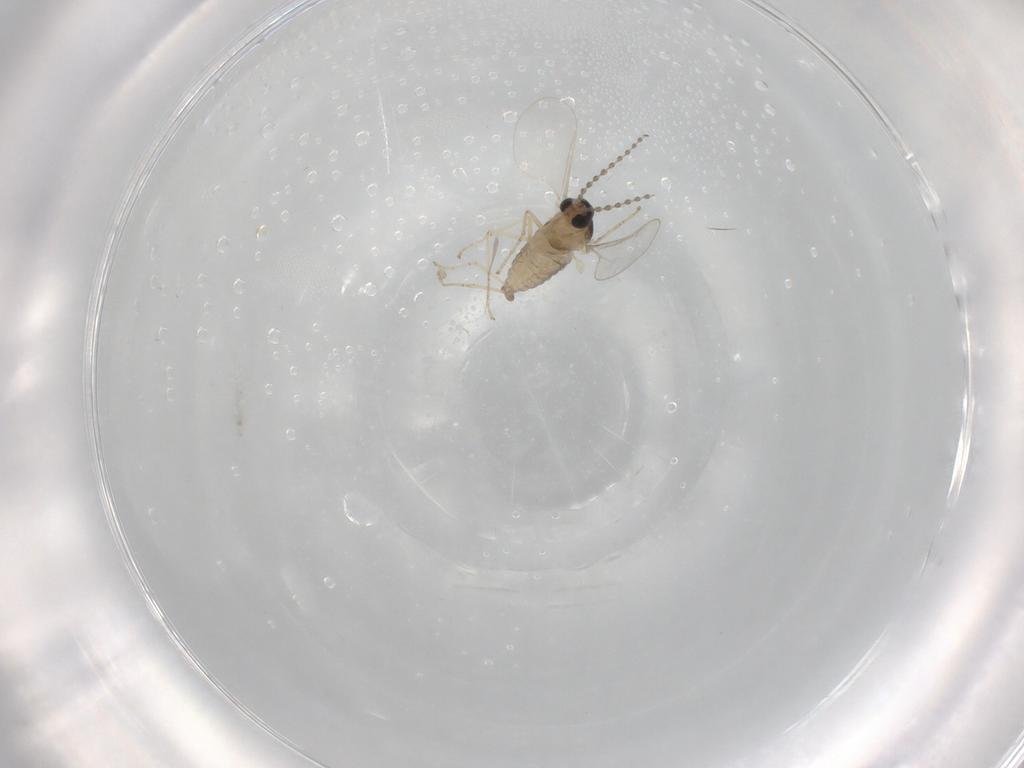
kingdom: Animalia
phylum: Arthropoda
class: Insecta
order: Diptera
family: Cecidomyiidae
